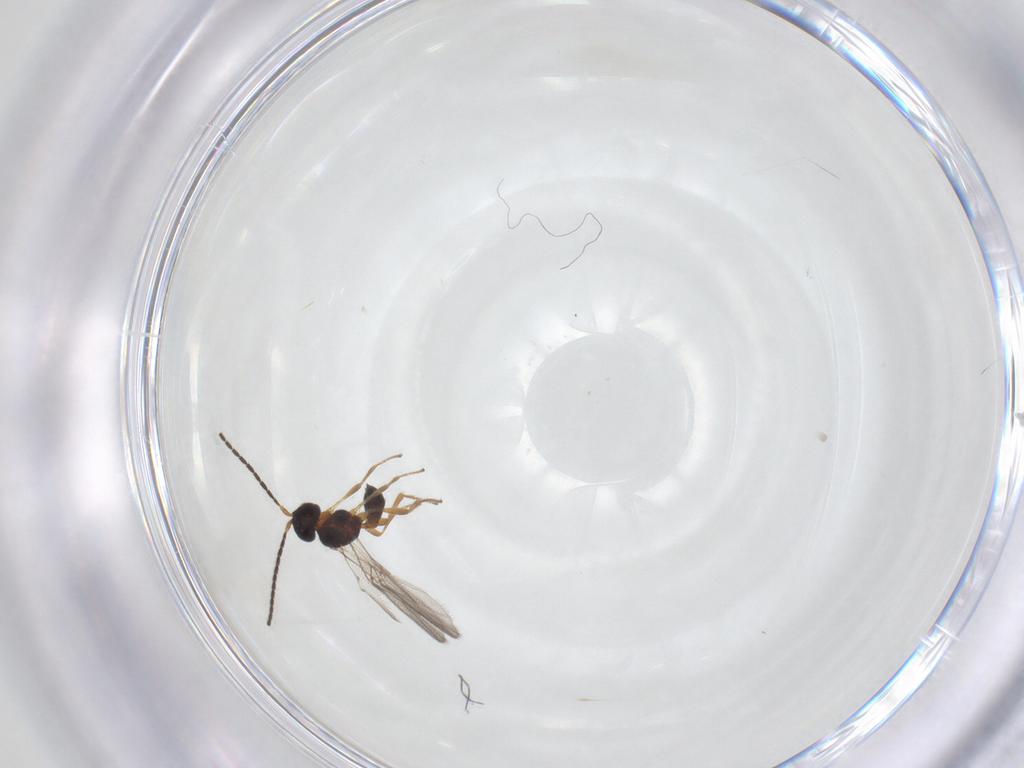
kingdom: Animalia
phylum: Arthropoda
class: Insecta
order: Hymenoptera
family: Braconidae
